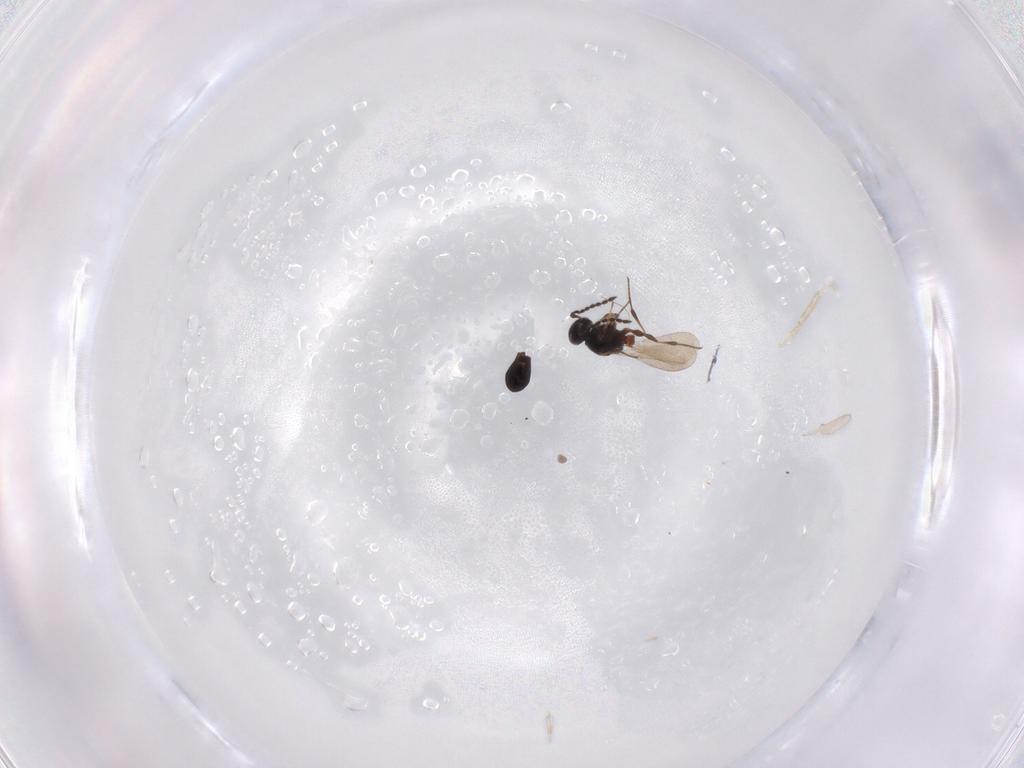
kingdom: Animalia
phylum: Arthropoda
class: Insecta
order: Hymenoptera
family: Platygastridae
